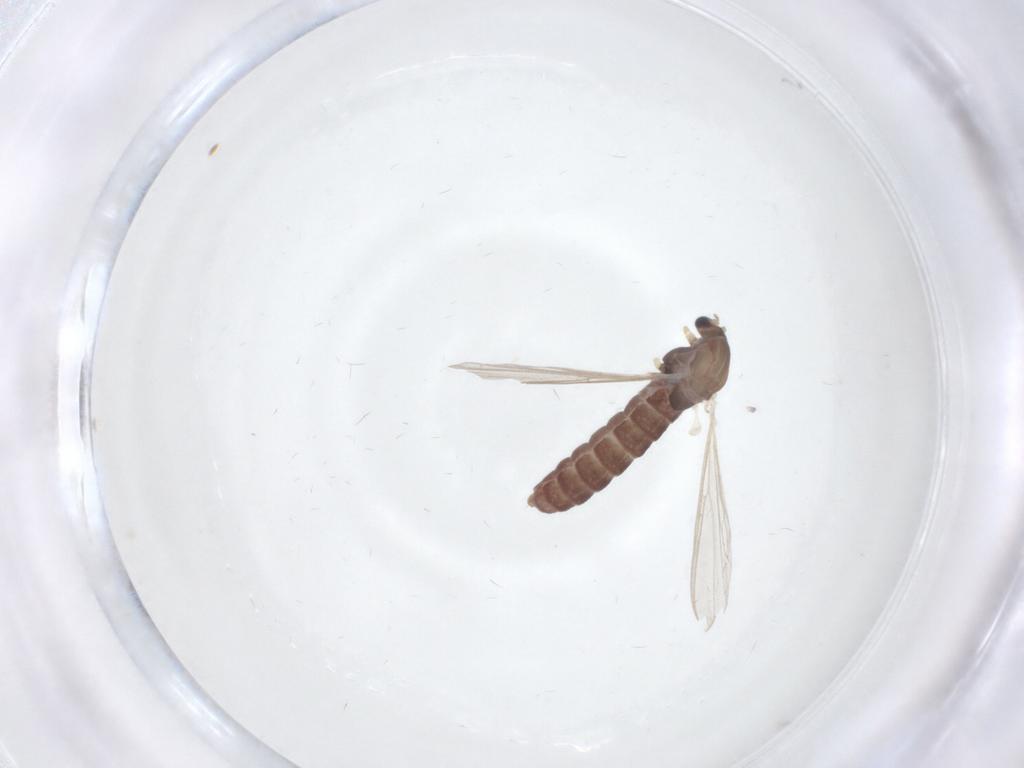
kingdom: Animalia
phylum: Arthropoda
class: Insecta
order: Diptera
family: Chironomidae
